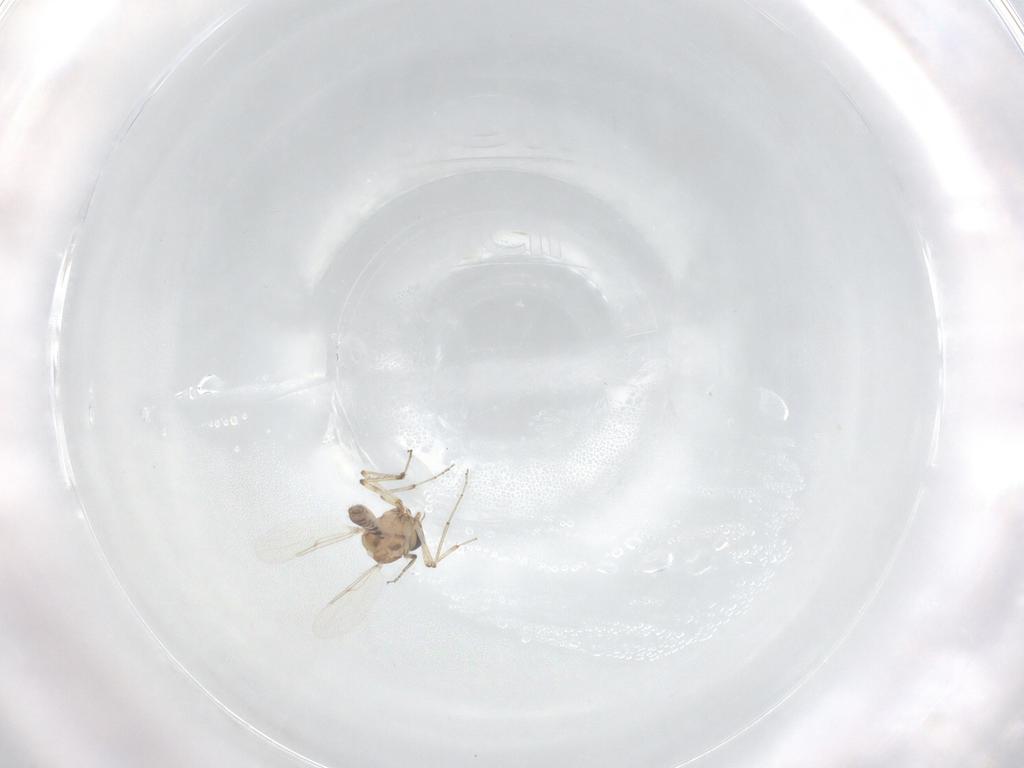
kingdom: Animalia
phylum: Arthropoda
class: Insecta
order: Diptera
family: Ceratopogonidae
